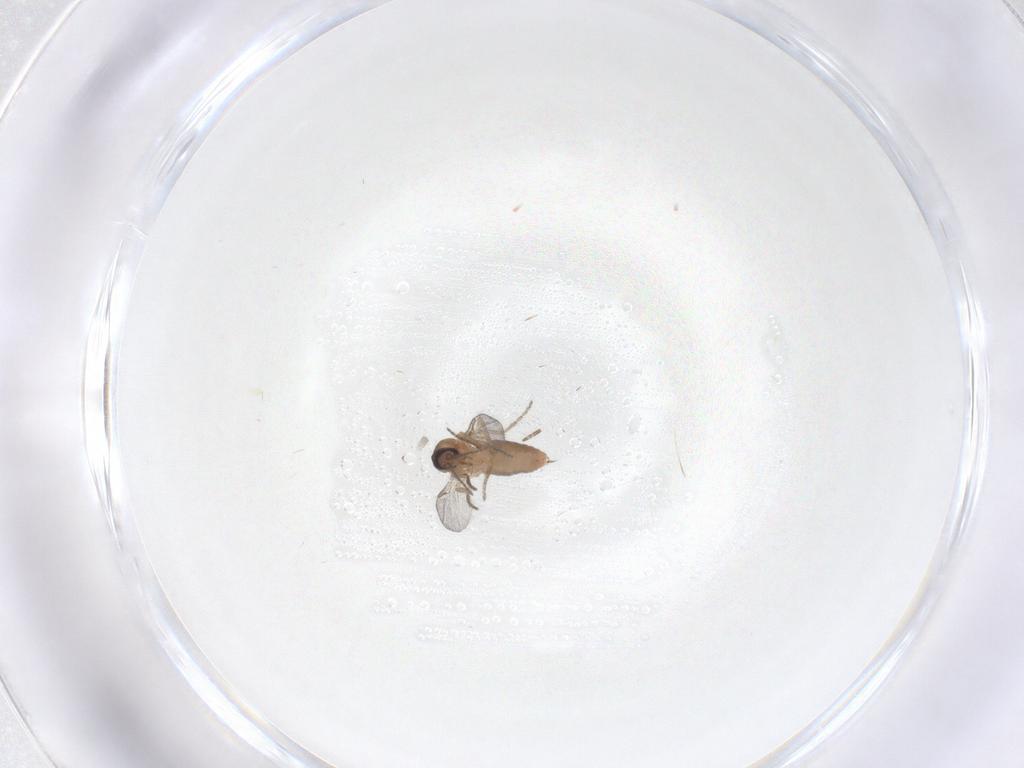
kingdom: Animalia
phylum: Arthropoda
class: Insecta
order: Diptera
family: Ceratopogonidae
